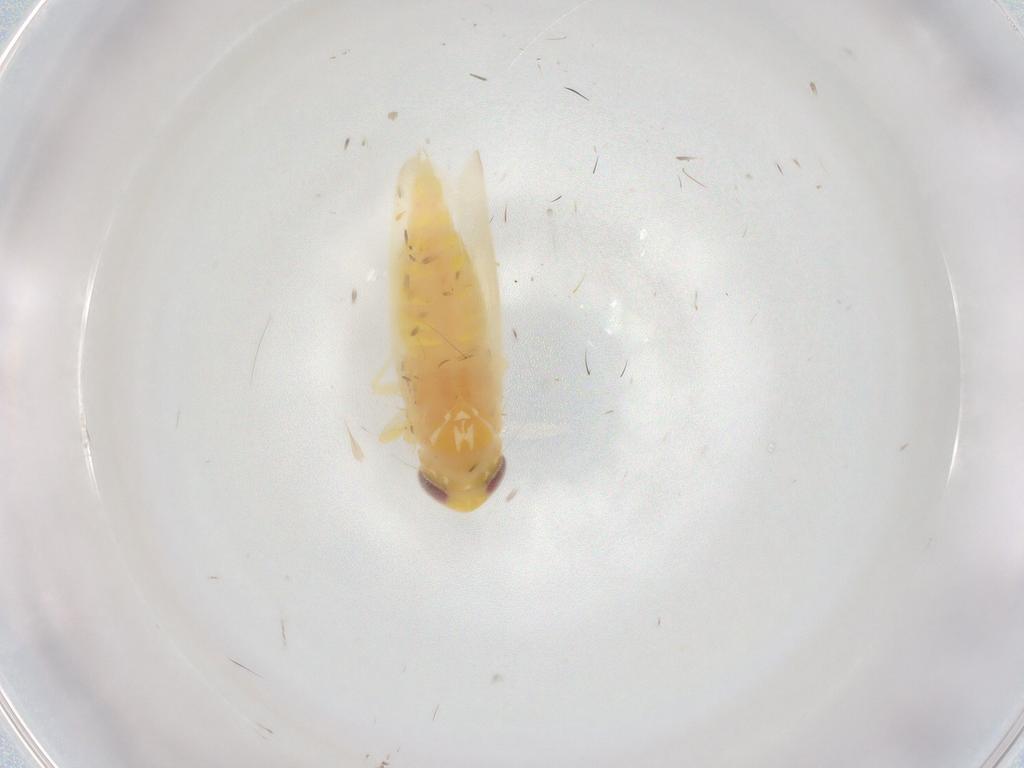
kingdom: Animalia
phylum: Arthropoda
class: Insecta
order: Hemiptera
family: Cicadellidae
